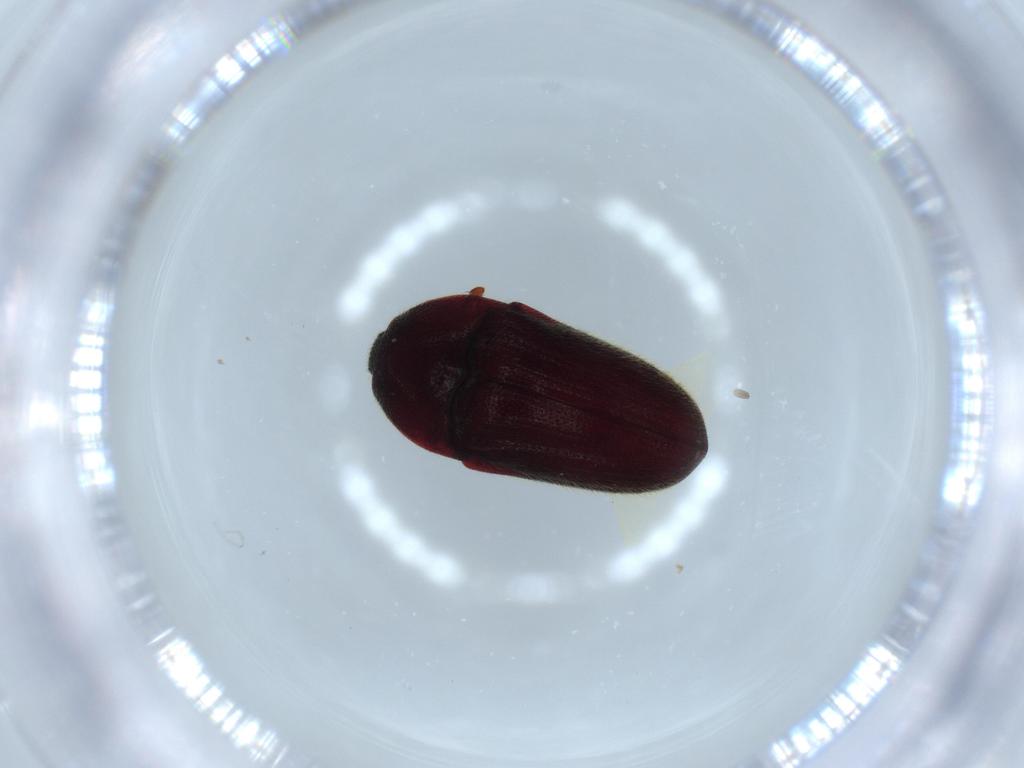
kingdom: Animalia
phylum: Arthropoda
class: Insecta
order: Coleoptera
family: Throscidae
